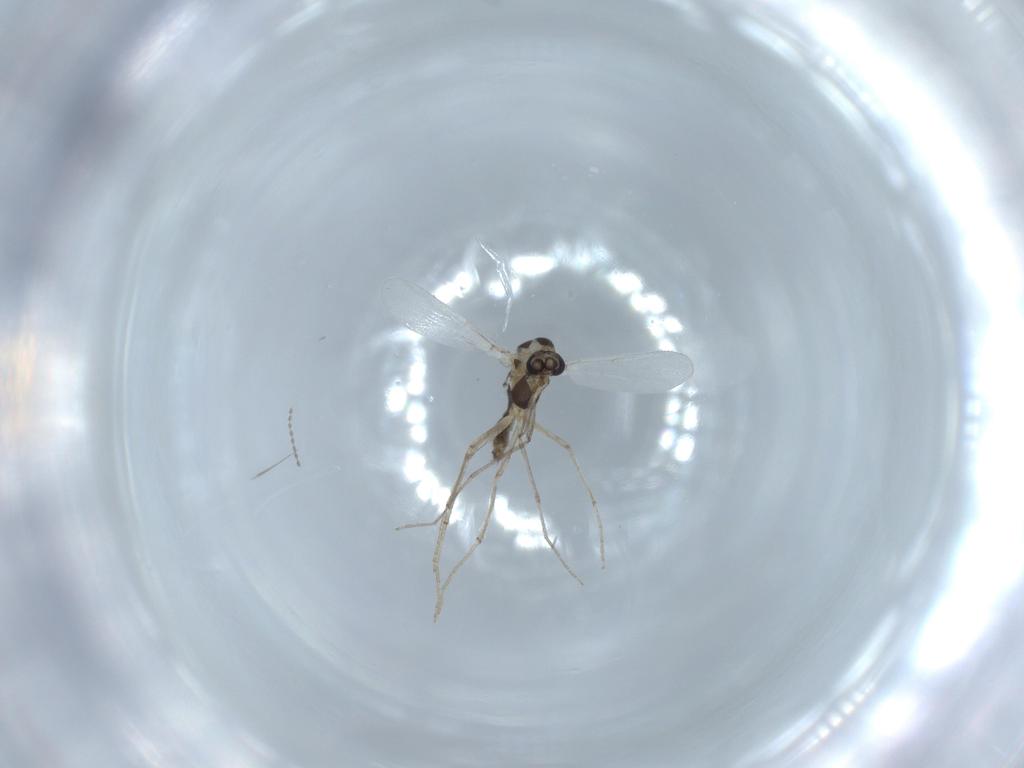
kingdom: Animalia
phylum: Arthropoda
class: Insecta
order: Diptera
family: Chironomidae
